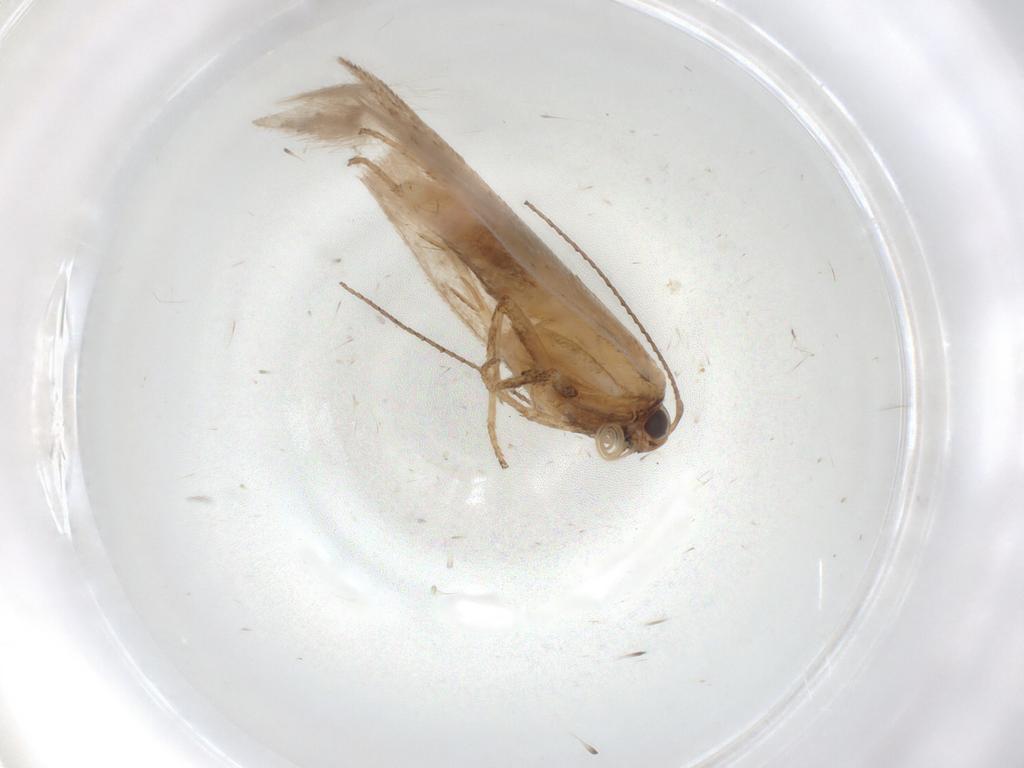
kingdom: Animalia
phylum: Arthropoda
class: Insecta
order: Lepidoptera
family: Gelechiidae
